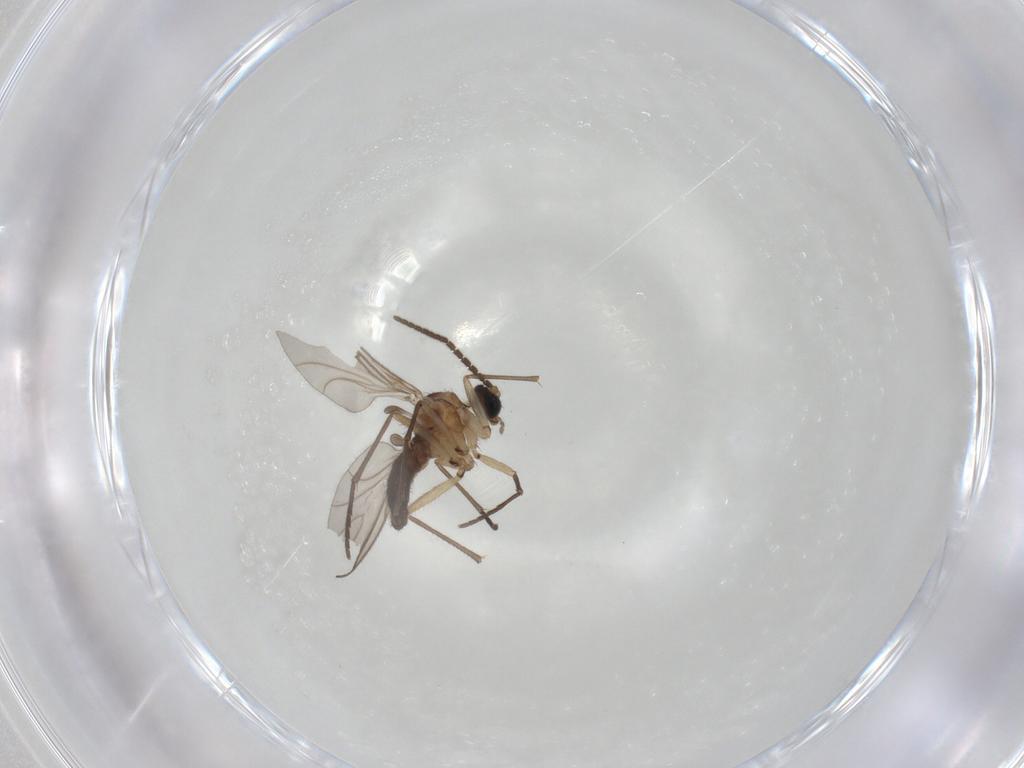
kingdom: Animalia
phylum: Arthropoda
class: Insecta
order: Diptera
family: Sciaridae
